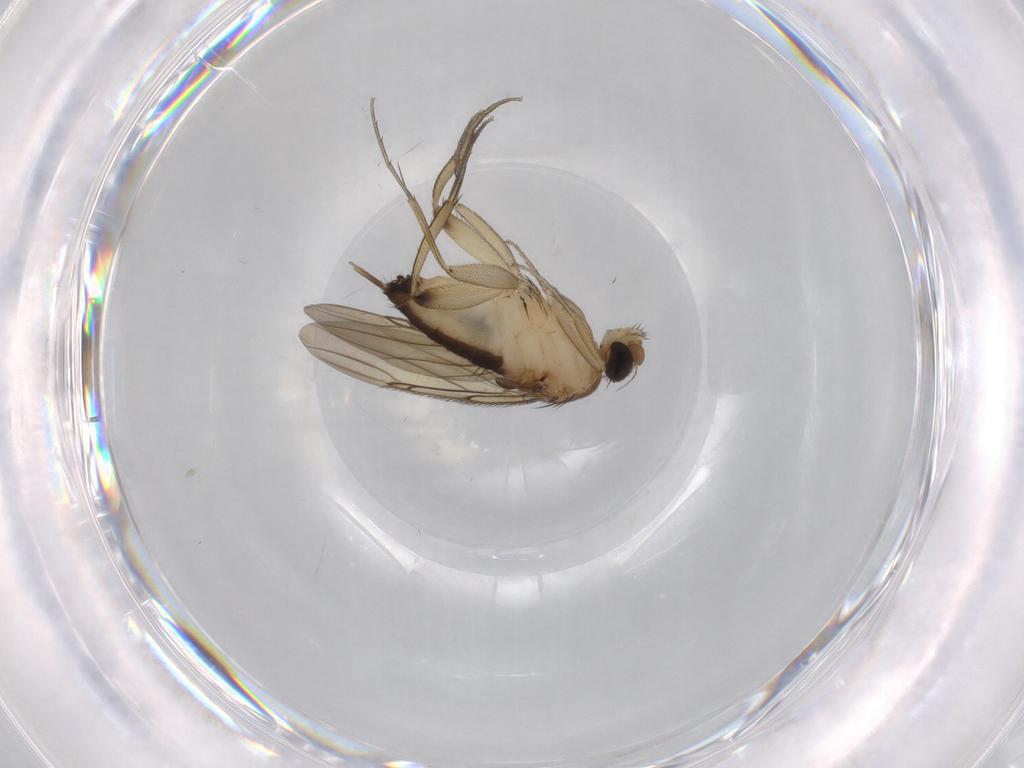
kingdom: Animalia
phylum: Arthropoda
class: Insecta
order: Diptera
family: Phoridae
